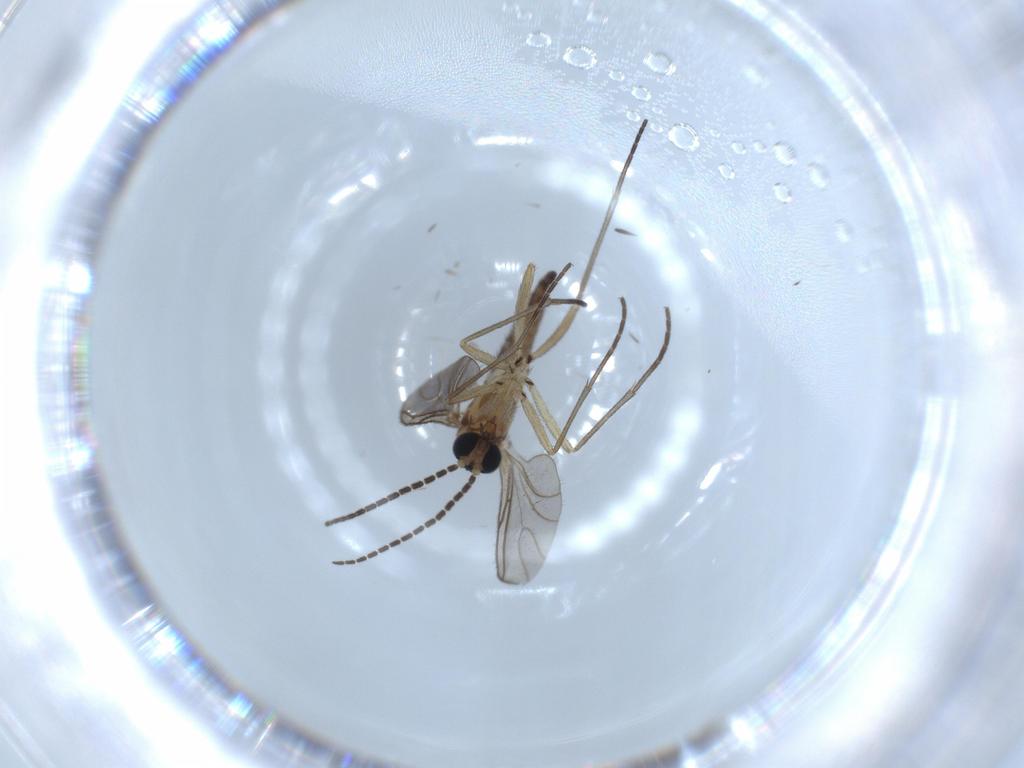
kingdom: Animalia
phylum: Arthropoda
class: Insecta
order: Diptera
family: Sciaridae
